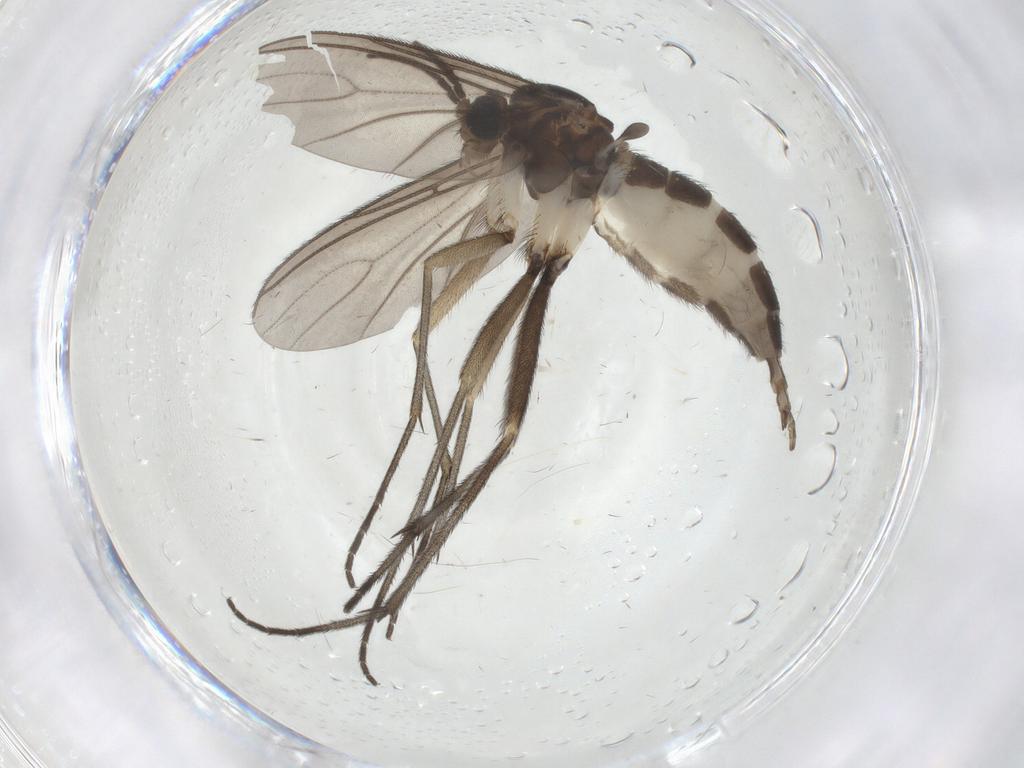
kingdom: Animalia
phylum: Arthropoda
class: Insecta
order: Diptera
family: Sciaridae
